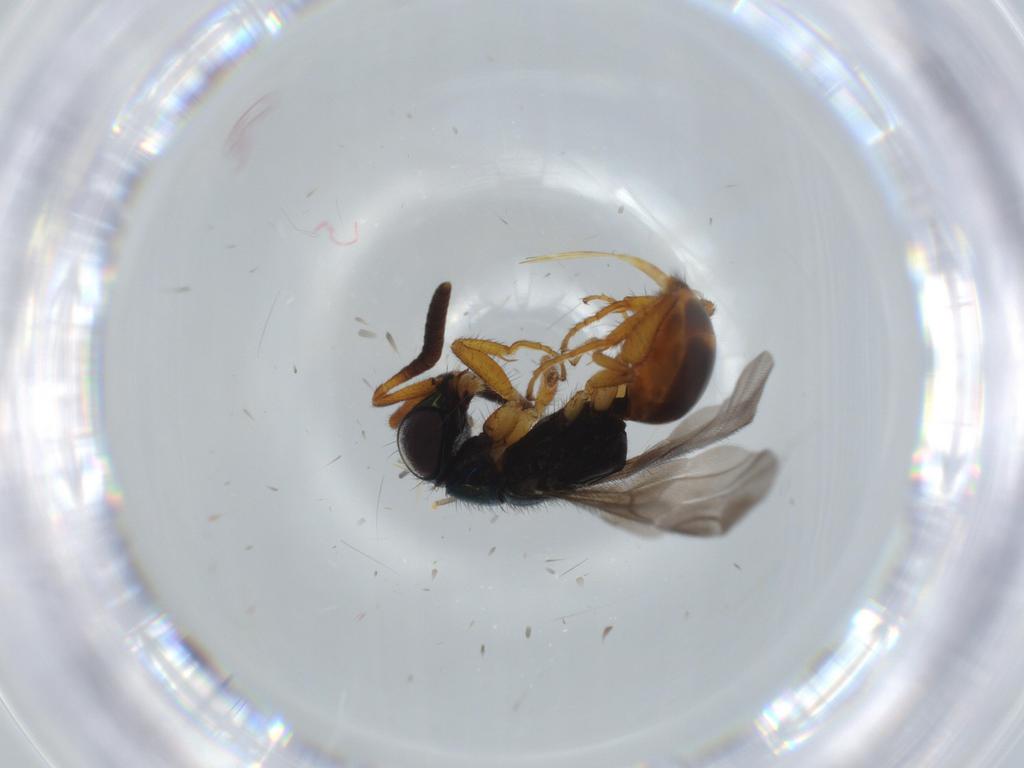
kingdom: Animalia
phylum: Arthropoda
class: Insecta
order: Hymenoptera
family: Chrysididae
